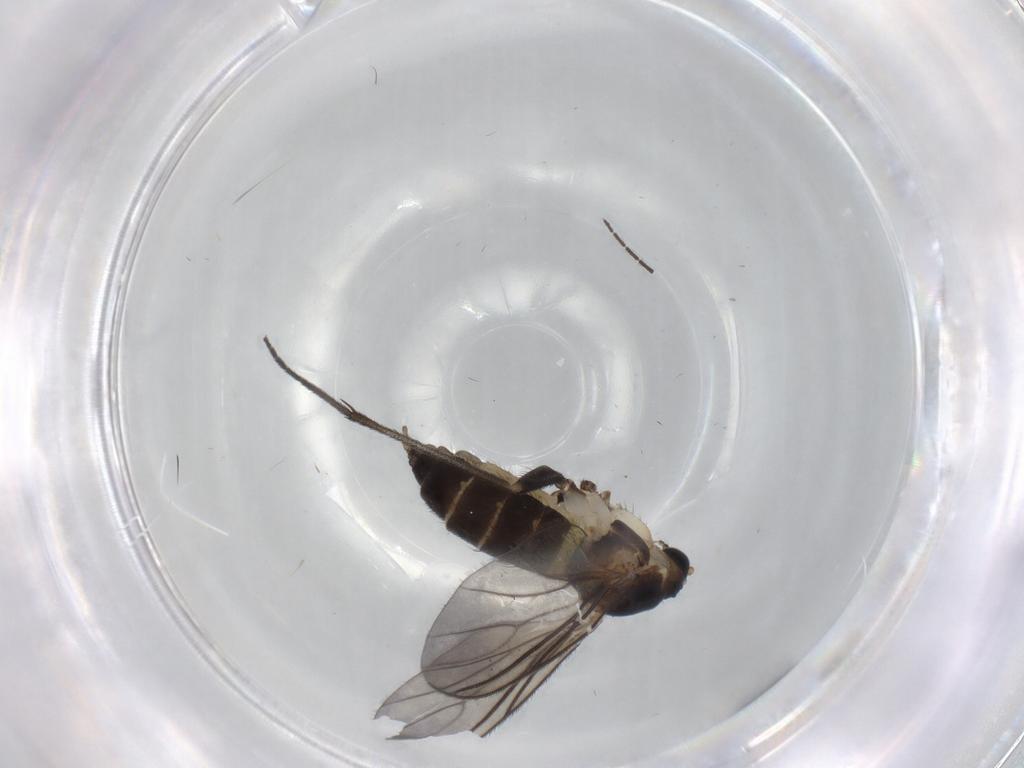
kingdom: Animalia
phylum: Arthropoda
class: Insecta
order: Diptera
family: Sciaridae
